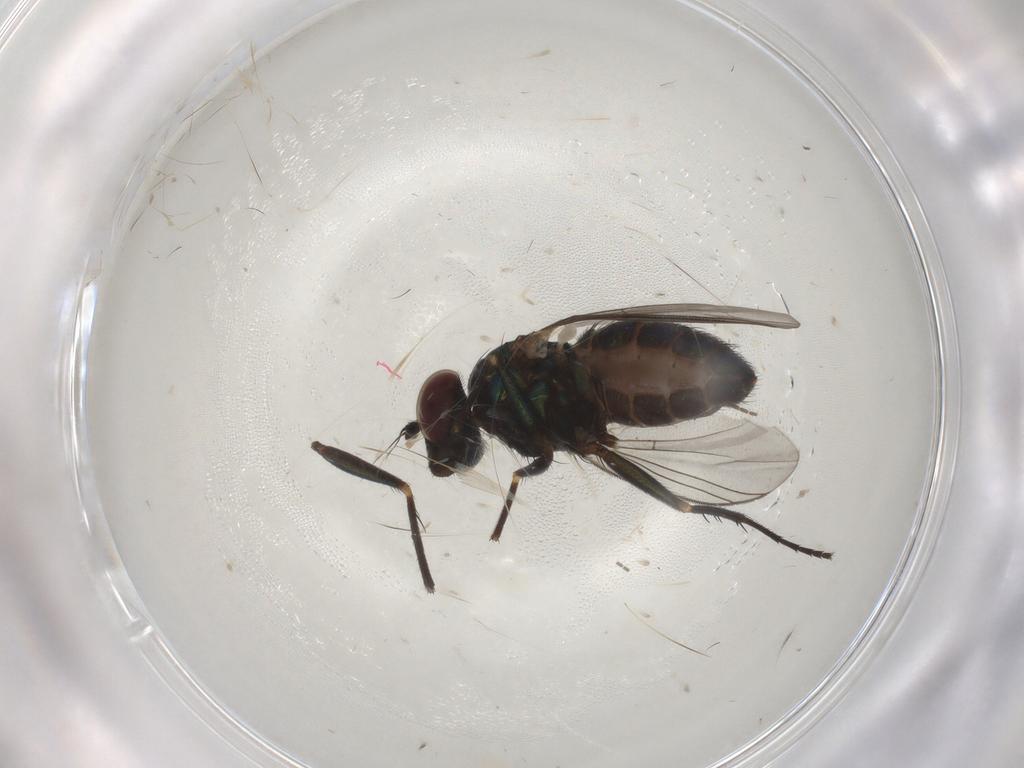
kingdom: Animalia
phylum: Arthropoda
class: Insecta
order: Diptera
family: Dolichopodidae
